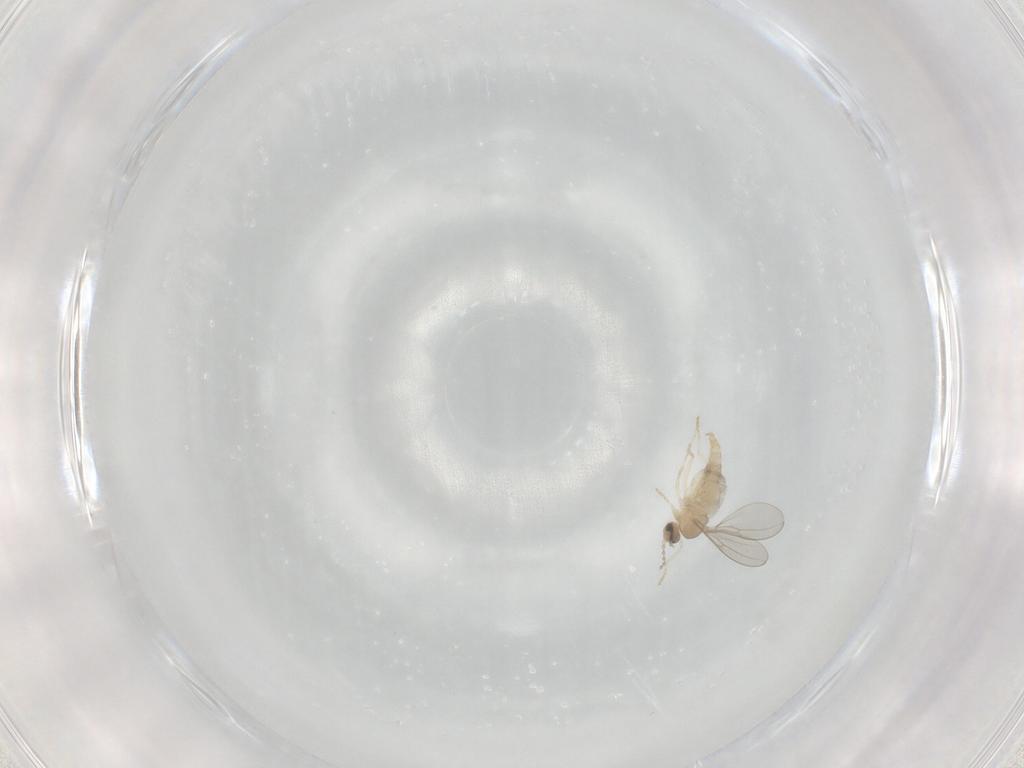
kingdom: Animalia
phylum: Arthropoda
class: Insecta
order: Diptera
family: Cecidomyiidae
